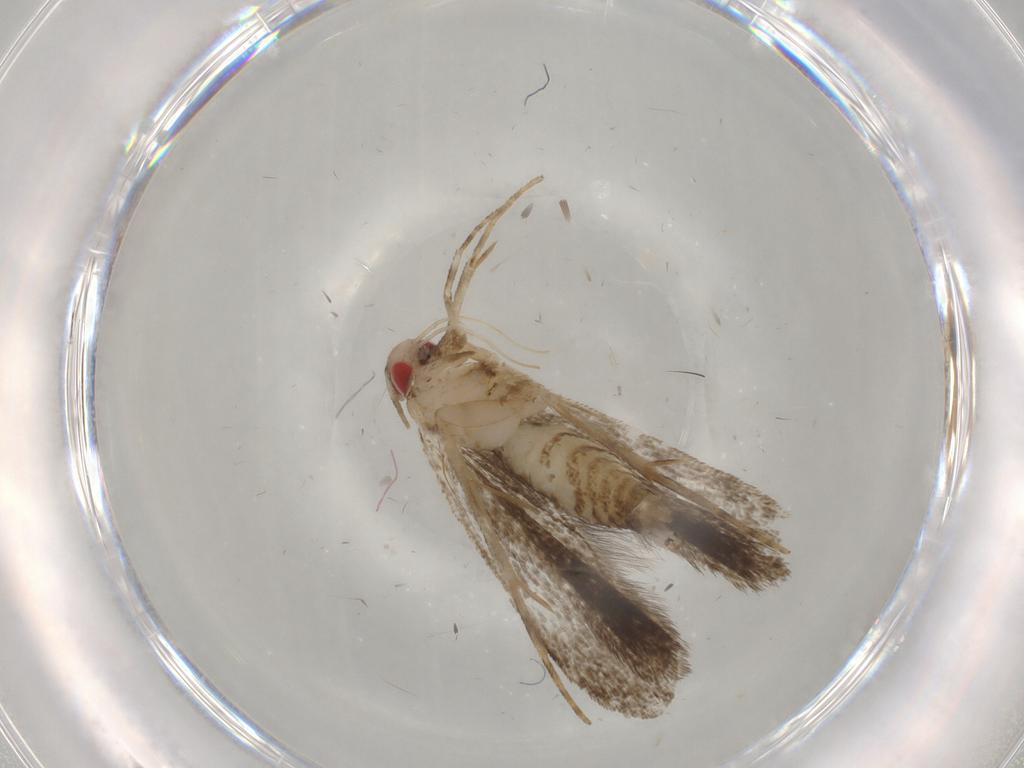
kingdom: Animalia
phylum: Arthropoda
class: Insecta
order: Lepidoptera
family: Gelechiidae
